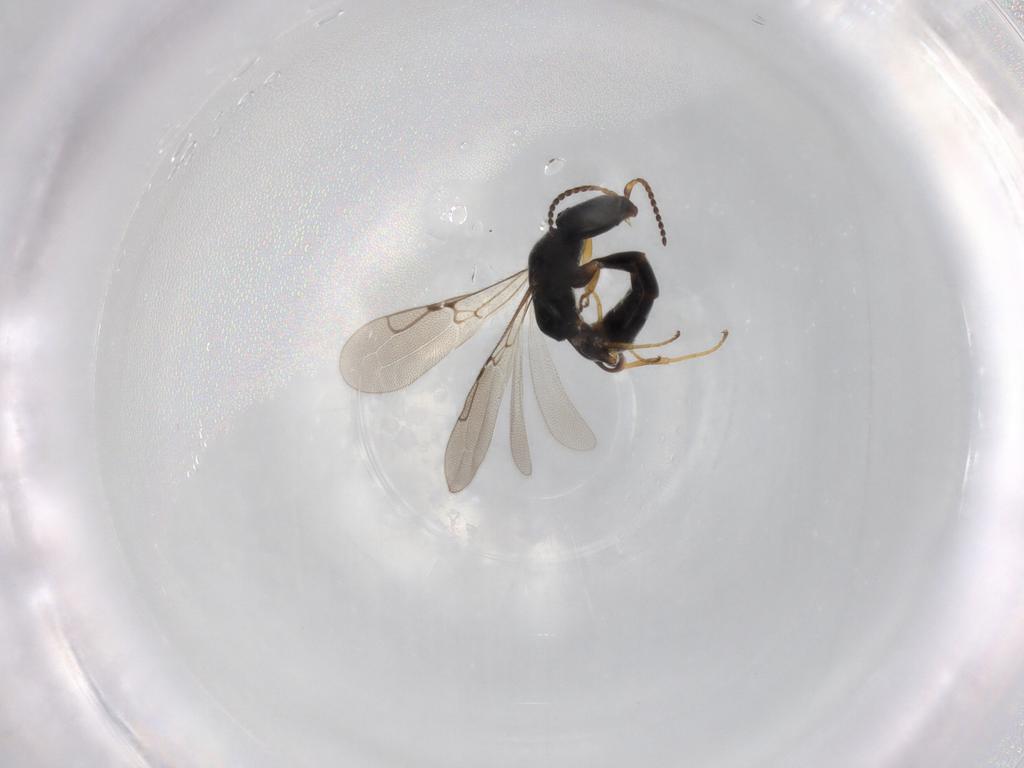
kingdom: Animalia
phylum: Arthropoda
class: Insecta
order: Hymenoptera
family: Bethylidae
